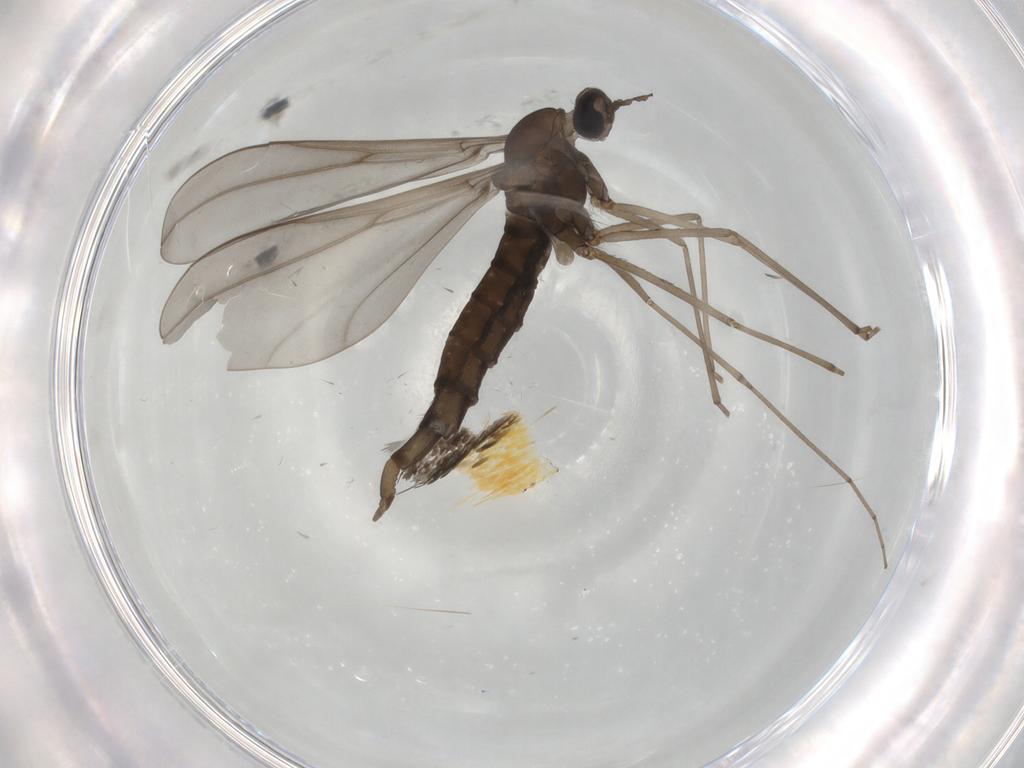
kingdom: Animalia
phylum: Arthropoda
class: Insecta
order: Diptera
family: Cecidomyiidae
